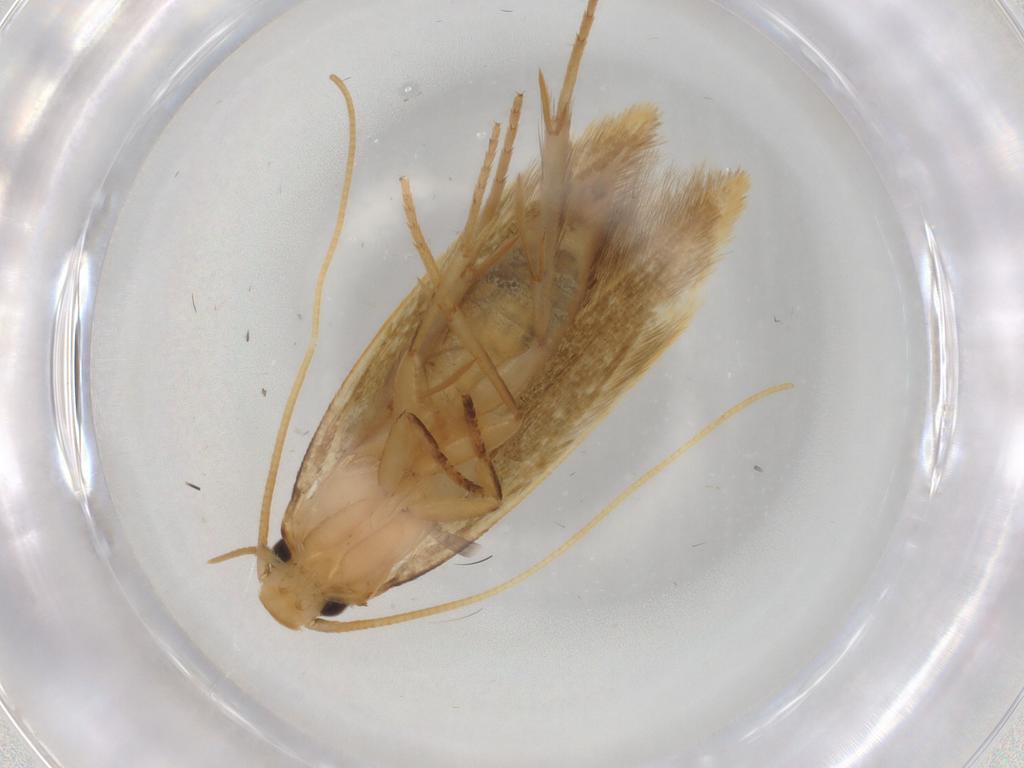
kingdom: Animalia
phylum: Arthropoda
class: Insecta
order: Lepidoptera
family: Tineidae
